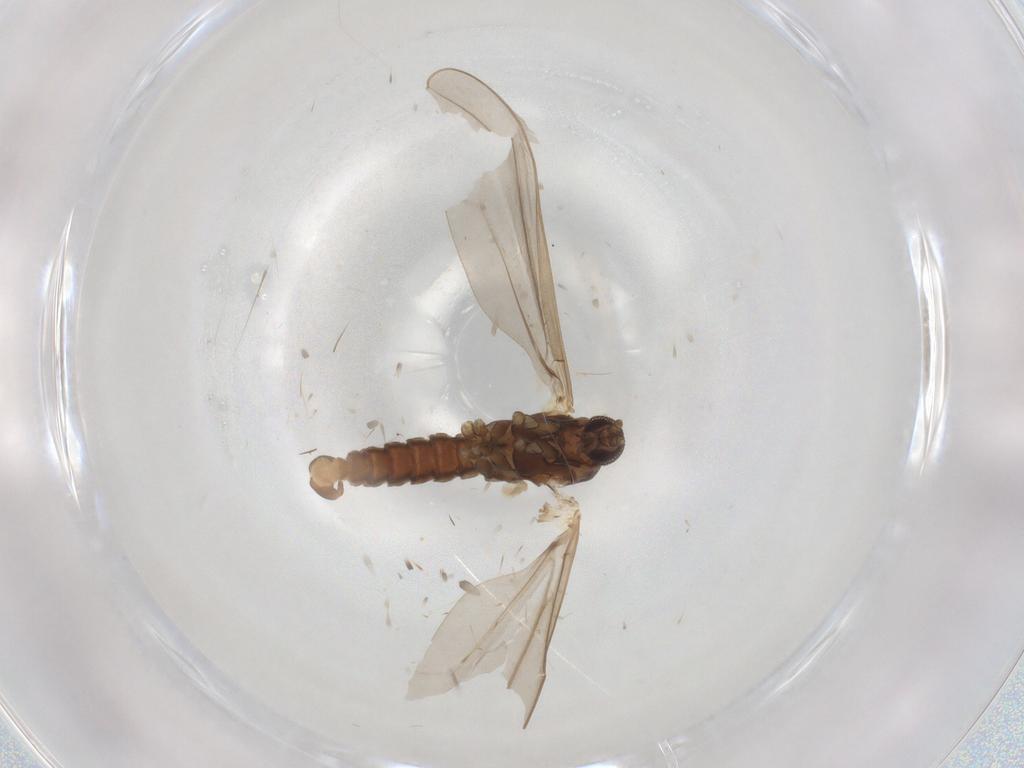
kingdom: Animalia
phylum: Arthropoda
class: Insecta
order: Diptera
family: Cecidomyiidae
